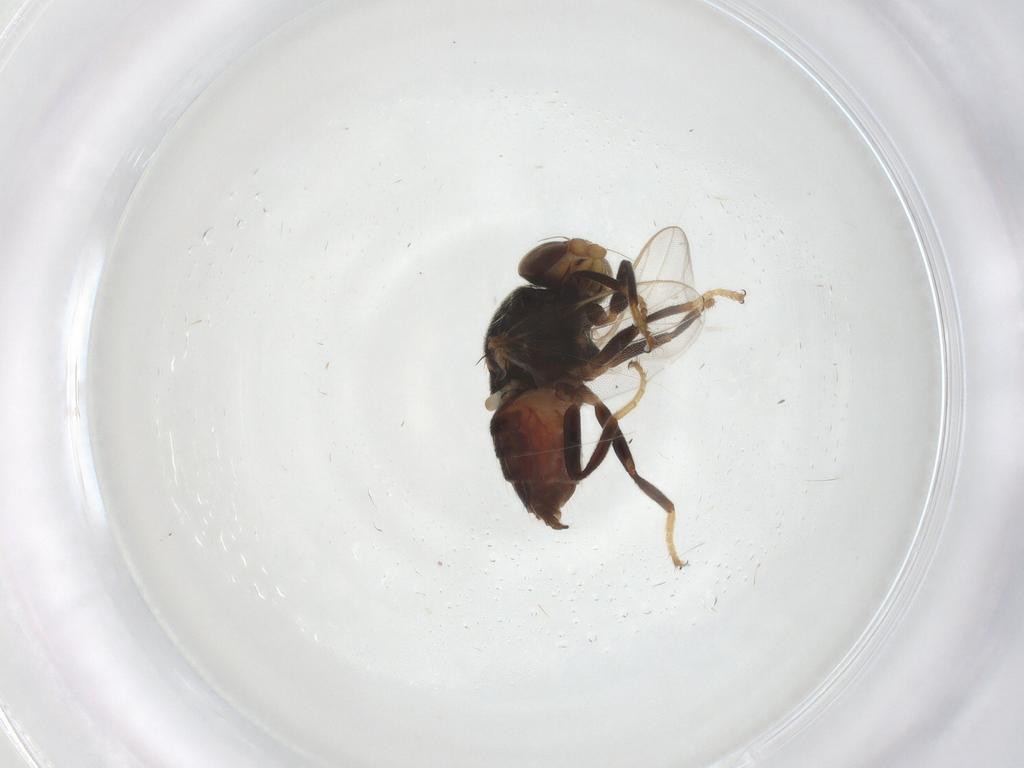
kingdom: Animalia
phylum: Arthropoda
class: Insecta
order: Diptera
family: Chloropidae
